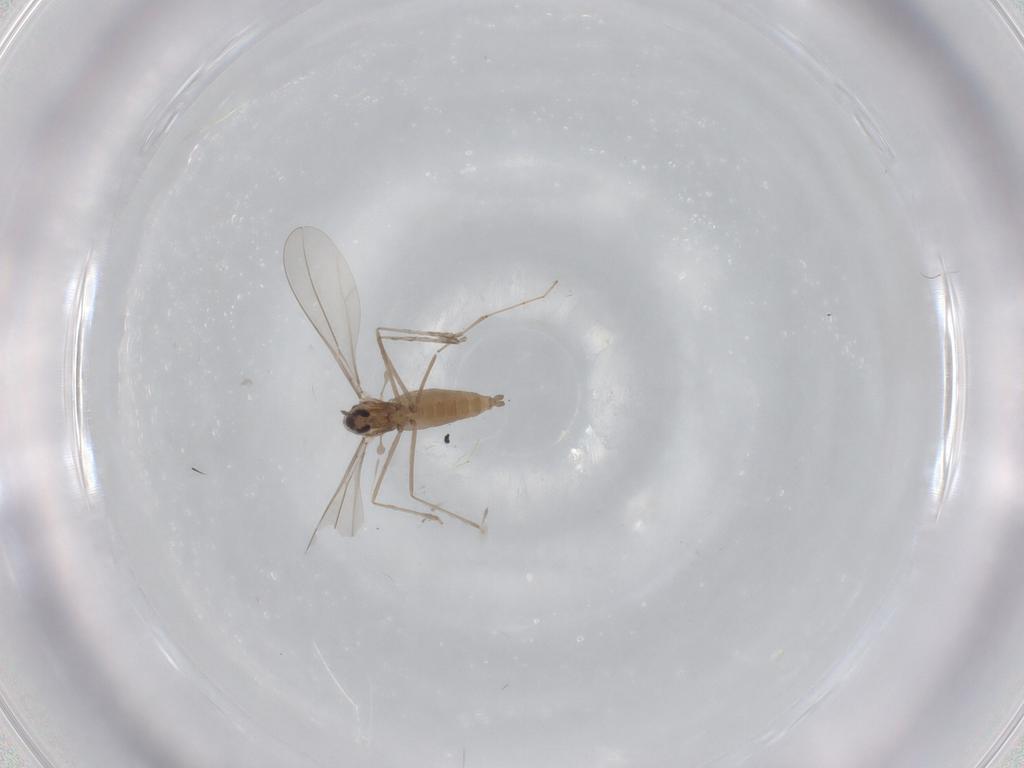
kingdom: Animalia
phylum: Arthropoda
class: Insecta
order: Diptera
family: Cecidomyiidae
